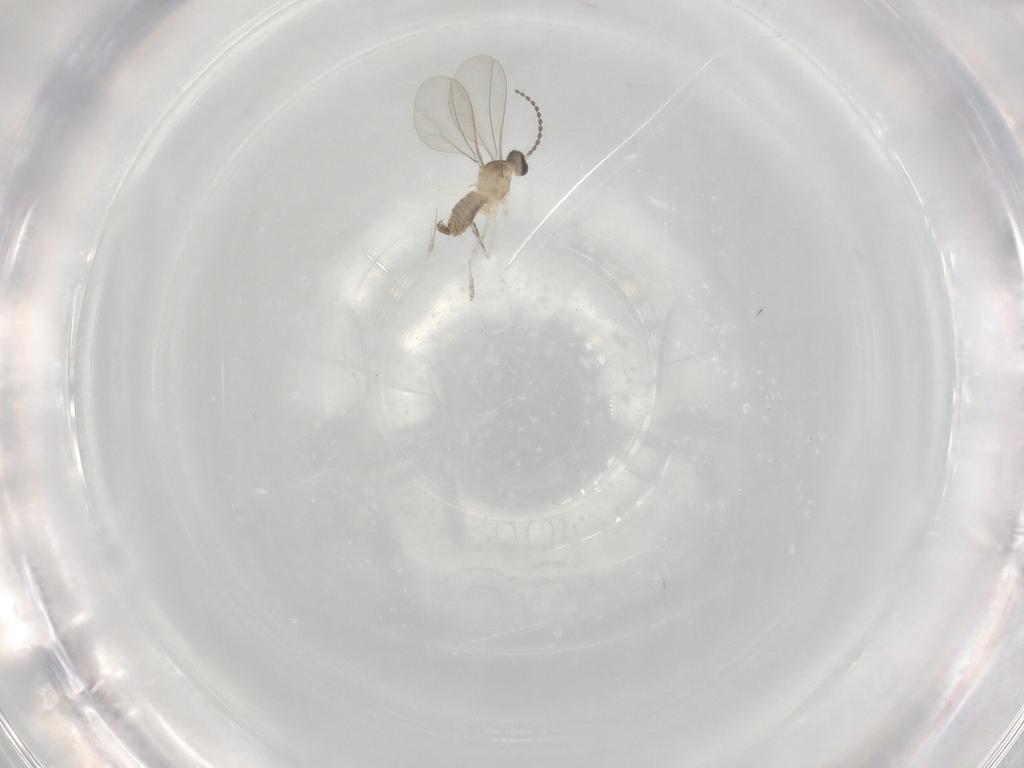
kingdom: Animalia
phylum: Arthropoda
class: Insecta
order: Diptera
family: Cecidomyiidae
